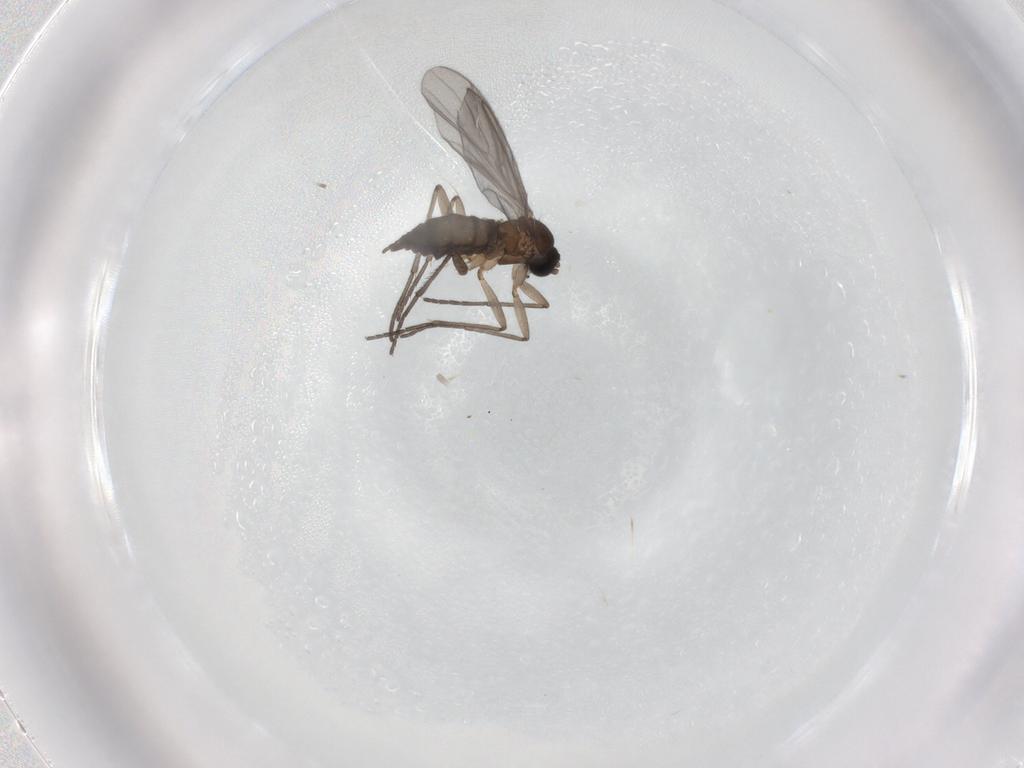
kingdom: Animalia
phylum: Arthropoda
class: Insecta
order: Diptera
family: Sciaridae
